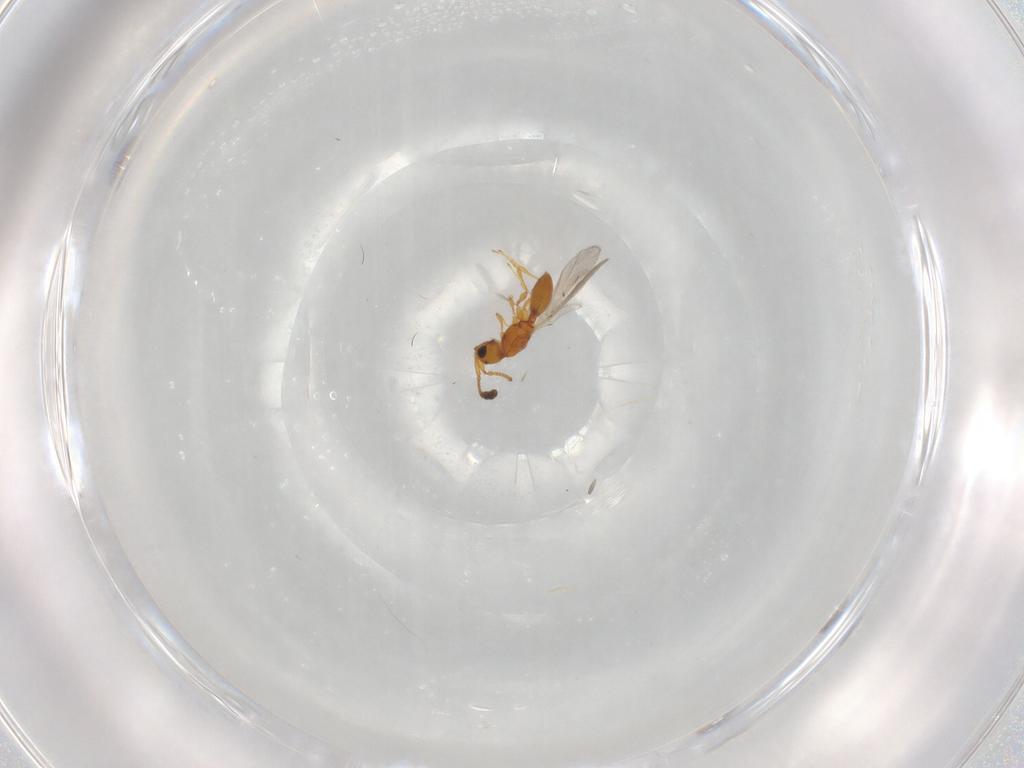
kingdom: Animalia
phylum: Arthropoda
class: Insecta
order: Hymenoptera
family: Diapriidae
